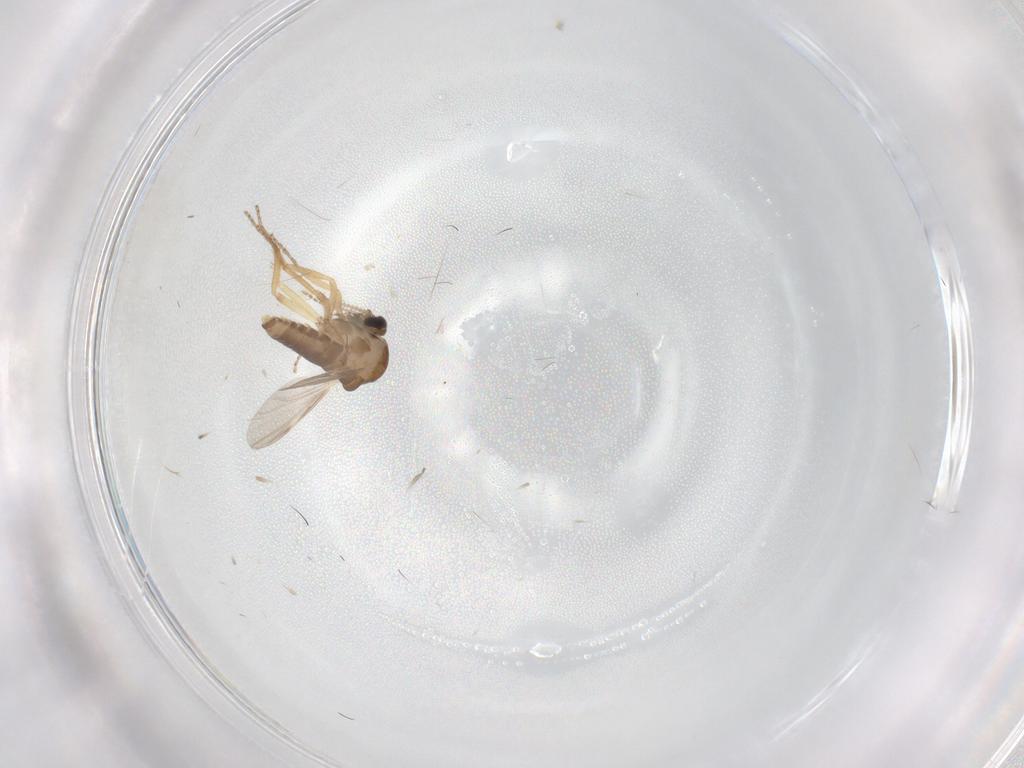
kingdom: Animalia
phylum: Arthropoda
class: Insecta
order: Diptera
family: Ceratopogonidae
